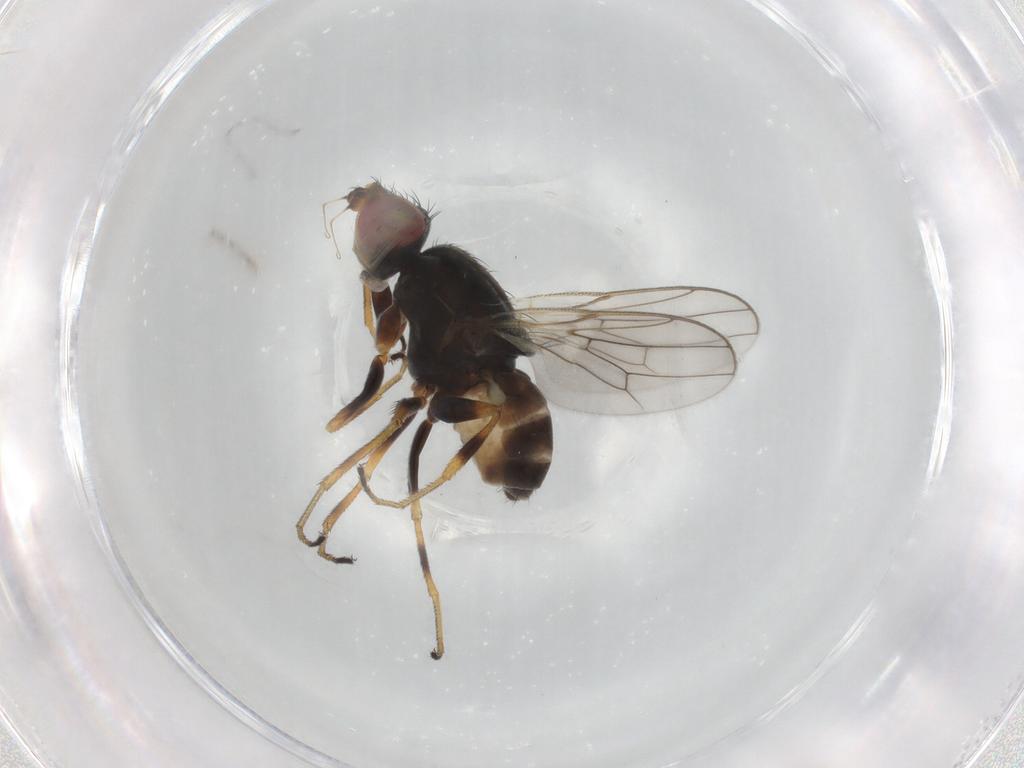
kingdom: Animalia
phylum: Arthropoda
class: Insecta
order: Diptera
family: Chloropidae
